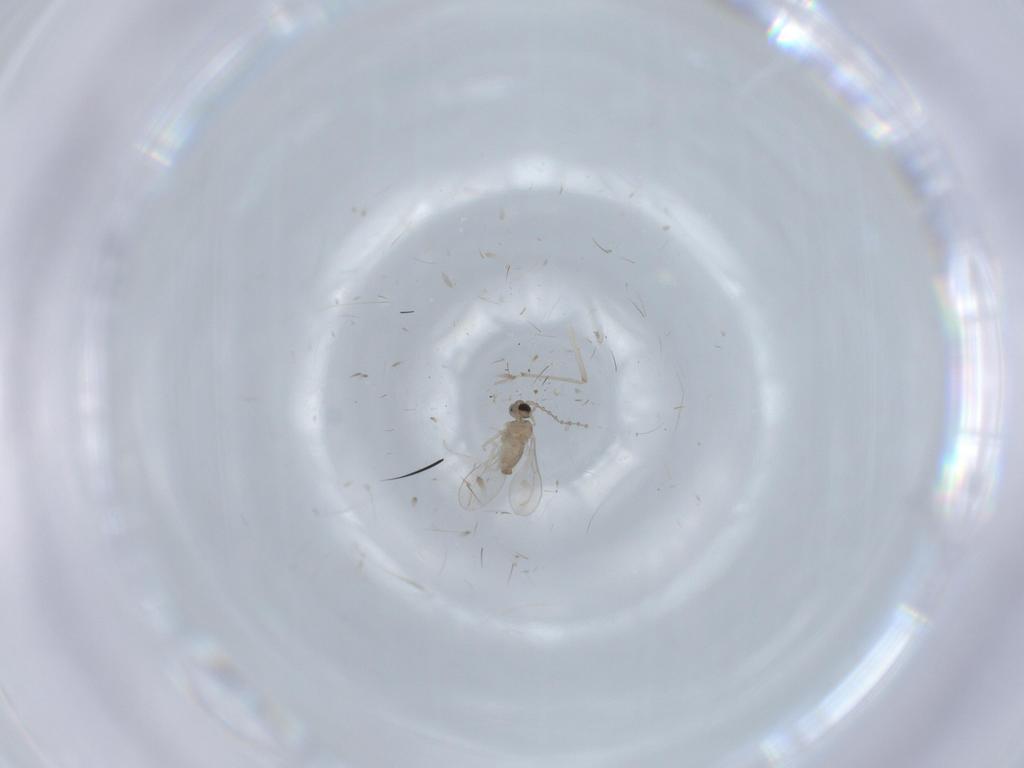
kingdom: Animalia
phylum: Arthropoda
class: Insecta
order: Diptera
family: Cecidomyiidae
